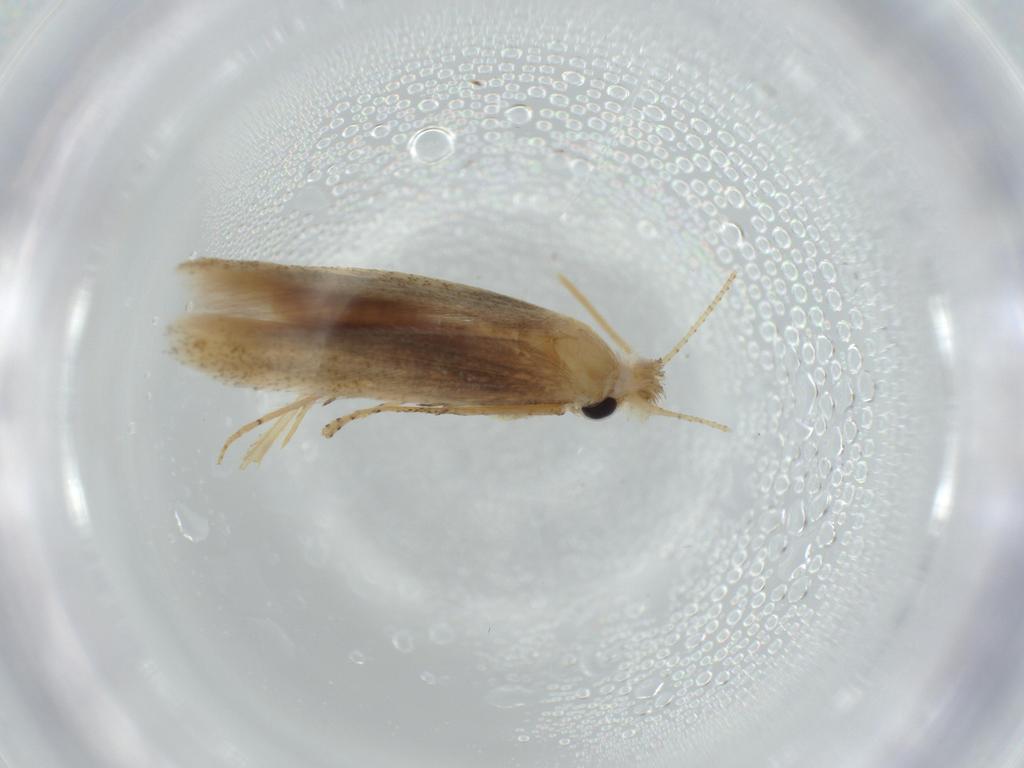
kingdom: Animalia
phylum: Arthropoda
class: Insecta
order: Lepidoptera
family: Bedelliidae
